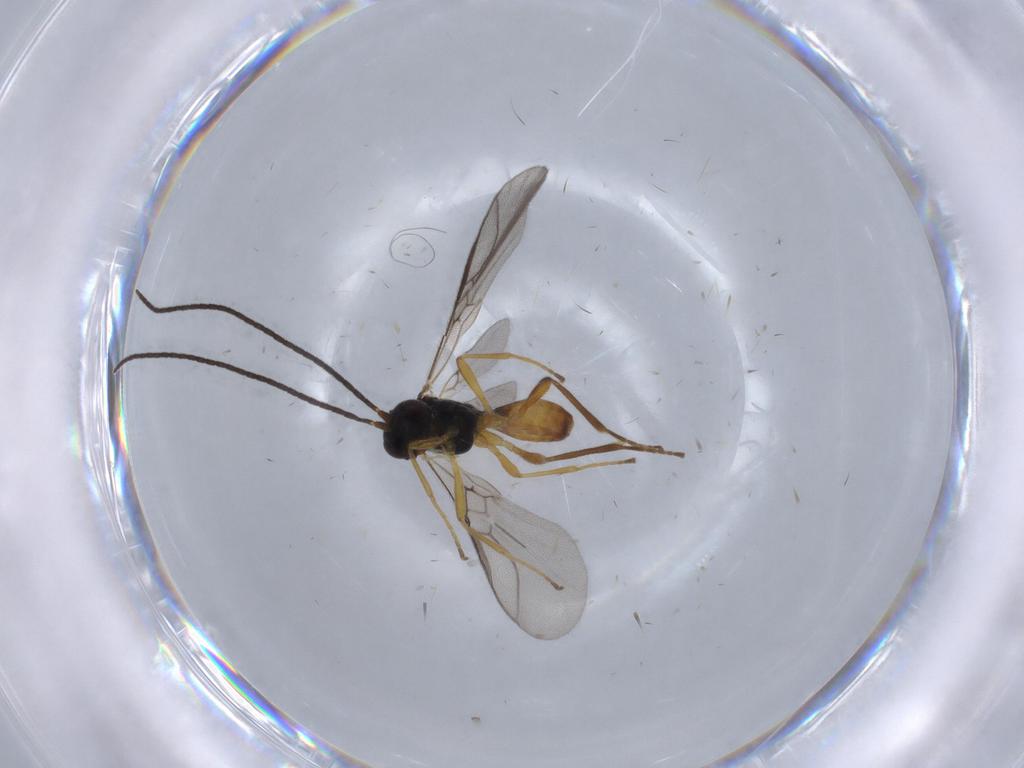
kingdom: Animalia
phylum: Arthropoda
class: Insecta
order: Hymenoptera
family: Braconidae
